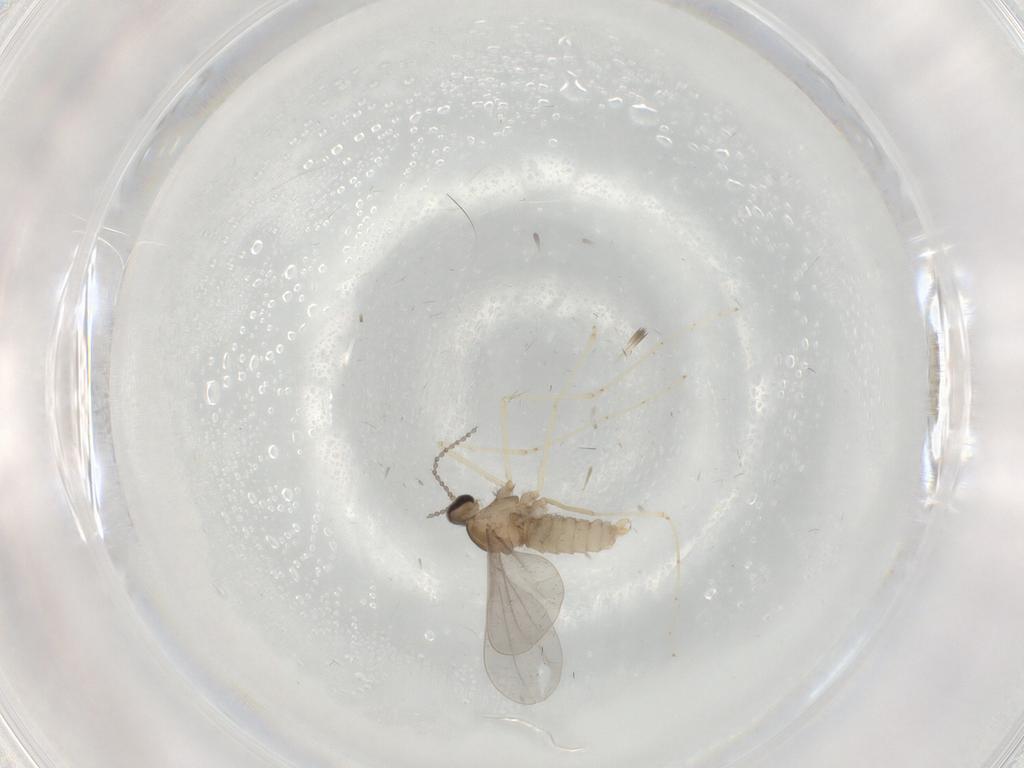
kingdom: Animalia
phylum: Arthropoda
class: Insecta
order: Diptera
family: Cecidomyiidae
